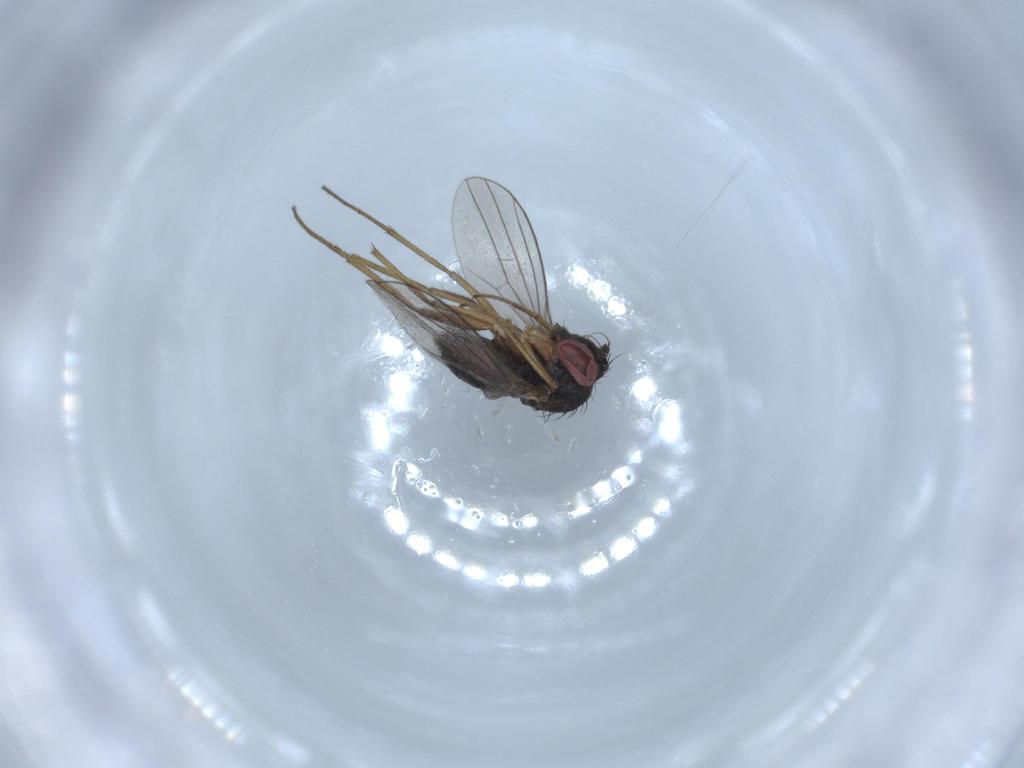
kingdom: Animalia
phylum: Arthropoda
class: Insecta
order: Diptera
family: Dolichopodidae
